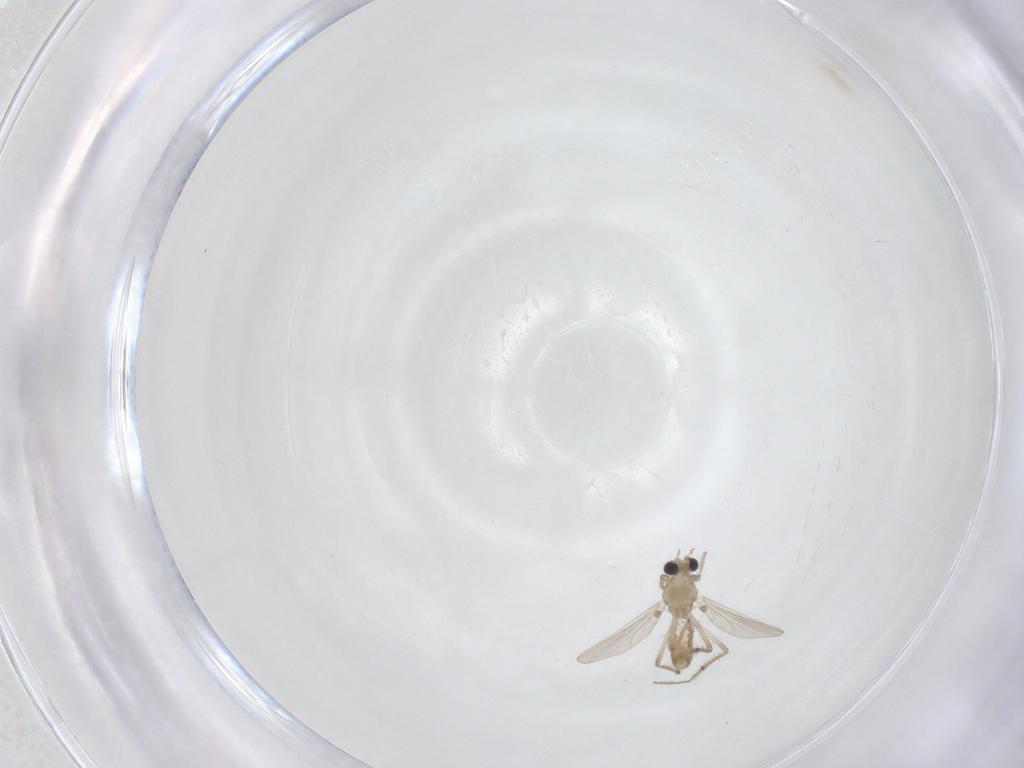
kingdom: Animalia
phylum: Arthropoda
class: Insecta
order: Diptera
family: Chironomidae
